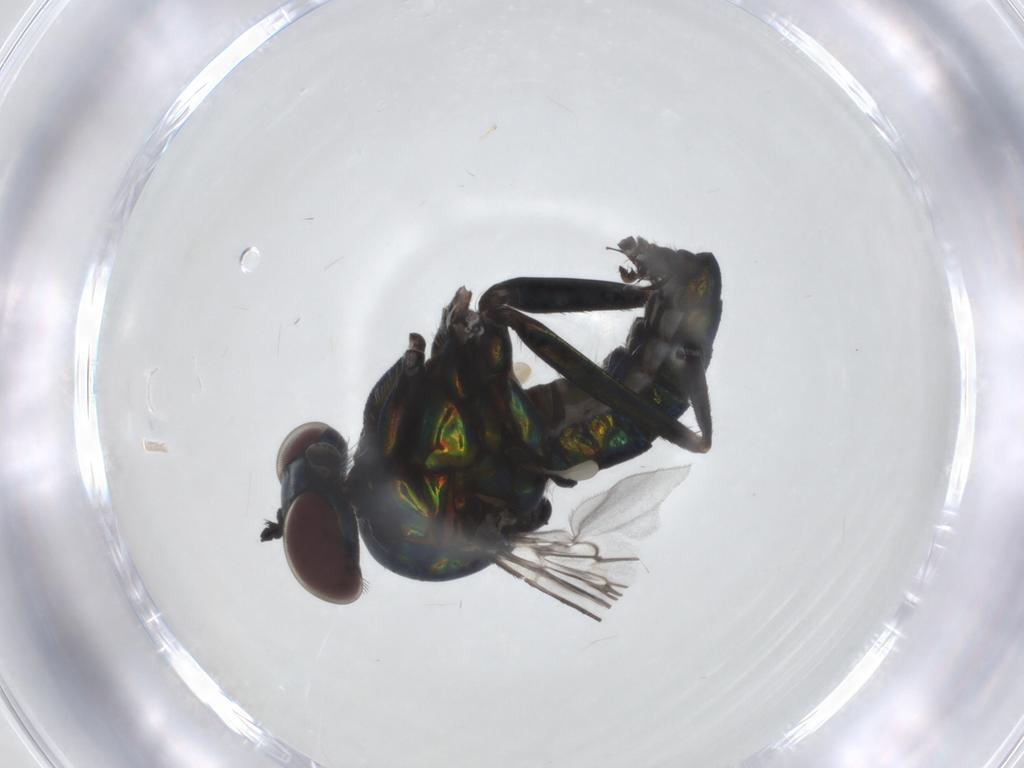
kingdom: Animalia
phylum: Arthropoda
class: Insecta
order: Diptera
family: Dolichopodidae
